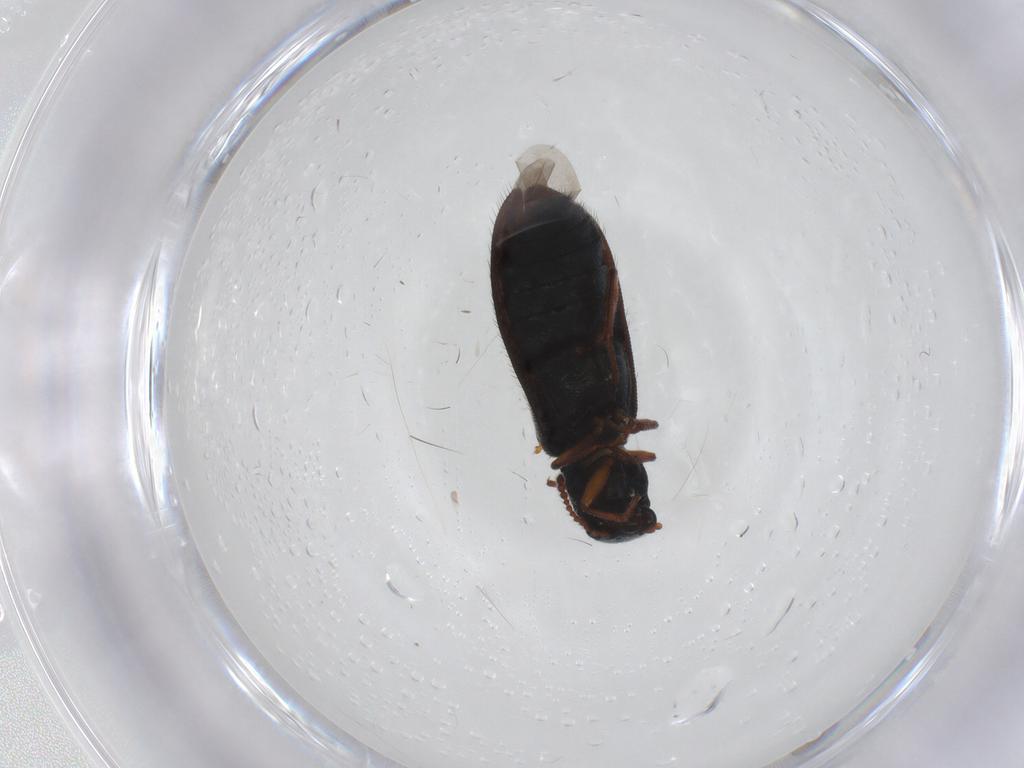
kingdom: Animalia
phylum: Arthropoda
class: Insecta
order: Coleoptera
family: Melyridae
